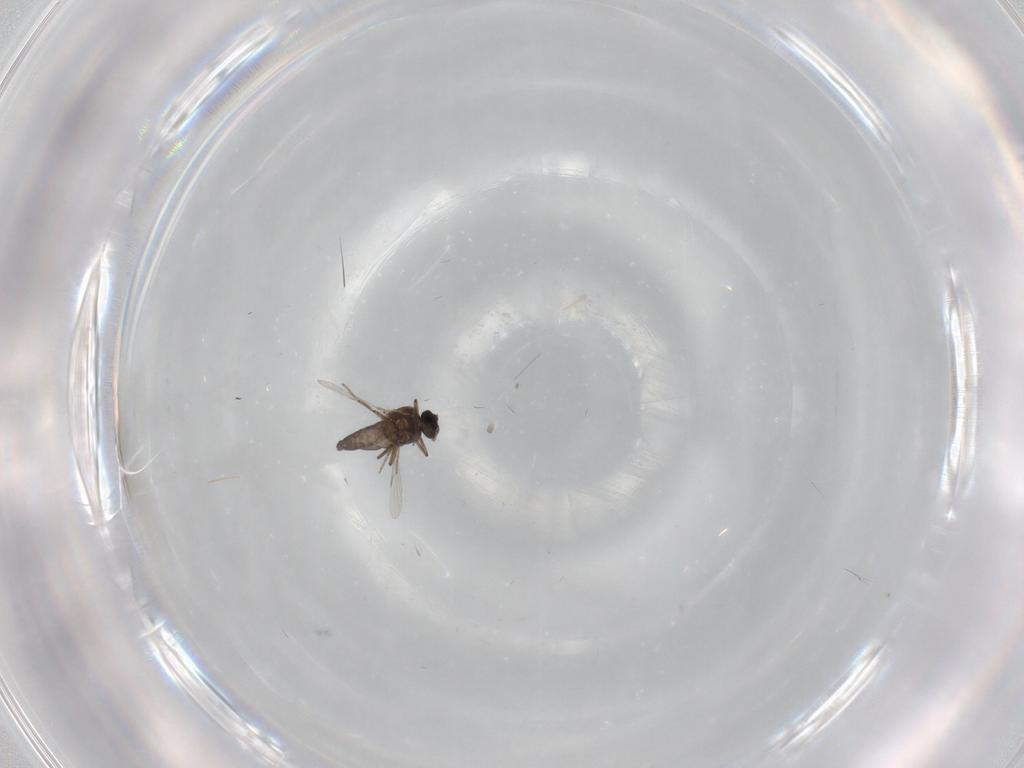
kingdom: Animalia
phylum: Arthropoda
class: Insecta
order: Diptera
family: Ceratopogonidae
